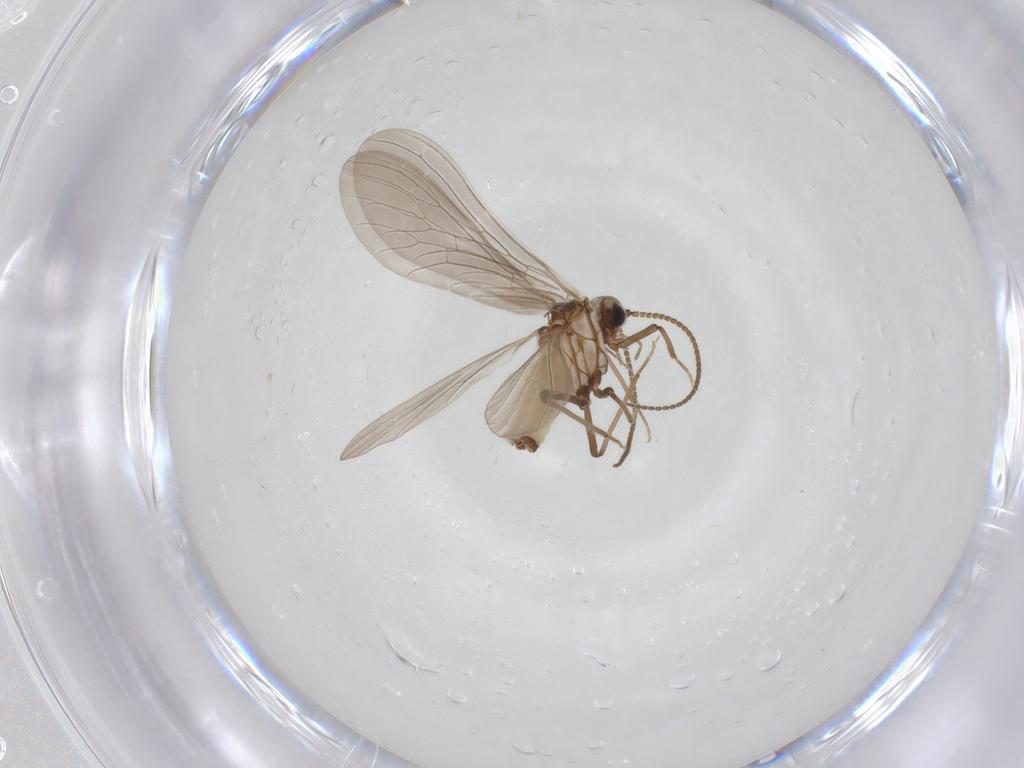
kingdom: Animalia
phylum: Arthropoda
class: Insecta
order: Neuroptera
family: Coniopterygidae
